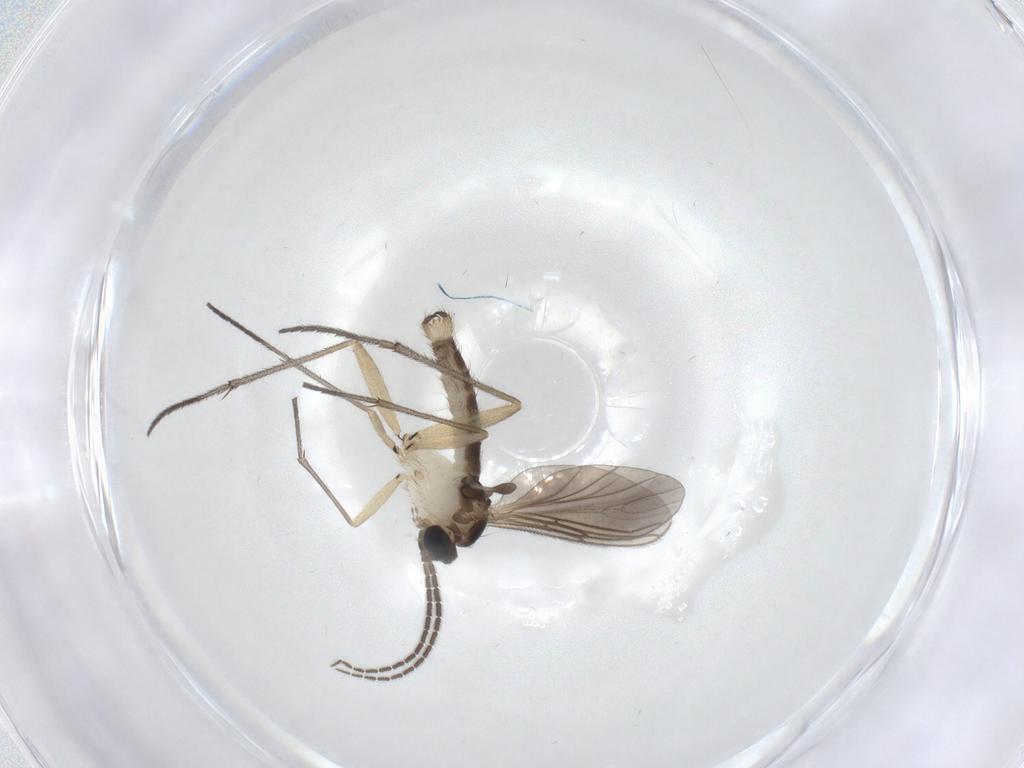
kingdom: Animalia
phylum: Arthropoda
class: Insecta
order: Diptera
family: Sciaridae
